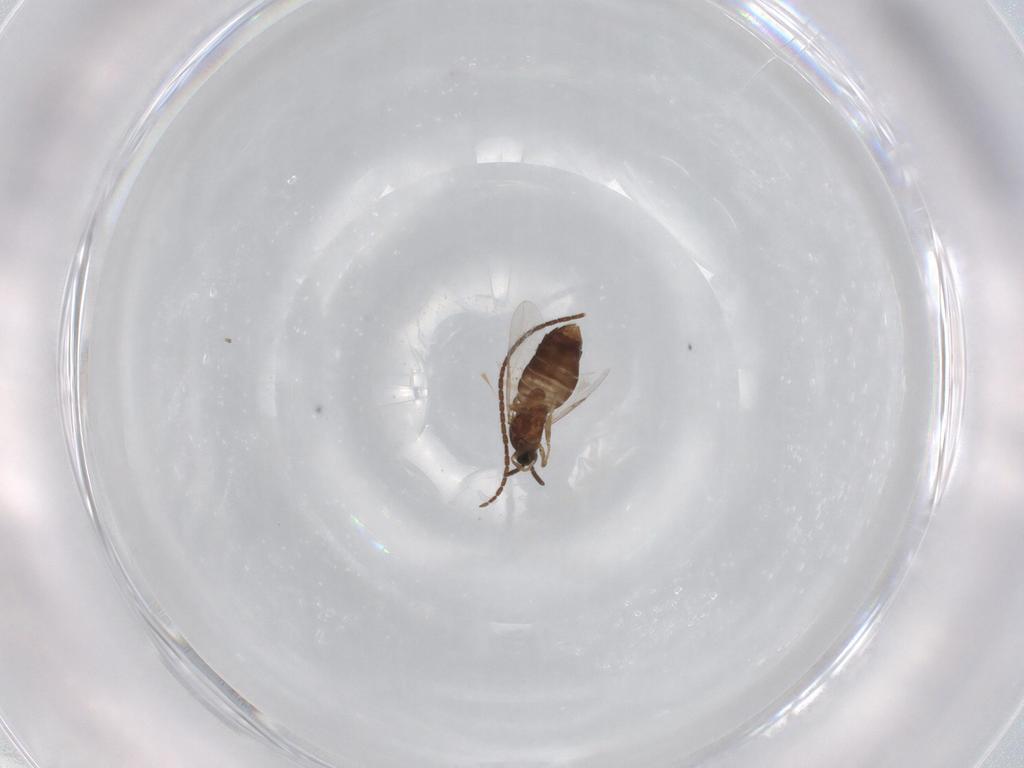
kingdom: Animalia
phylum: Arthropoda
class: Insecta
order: Diptera
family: Scatopsidae
